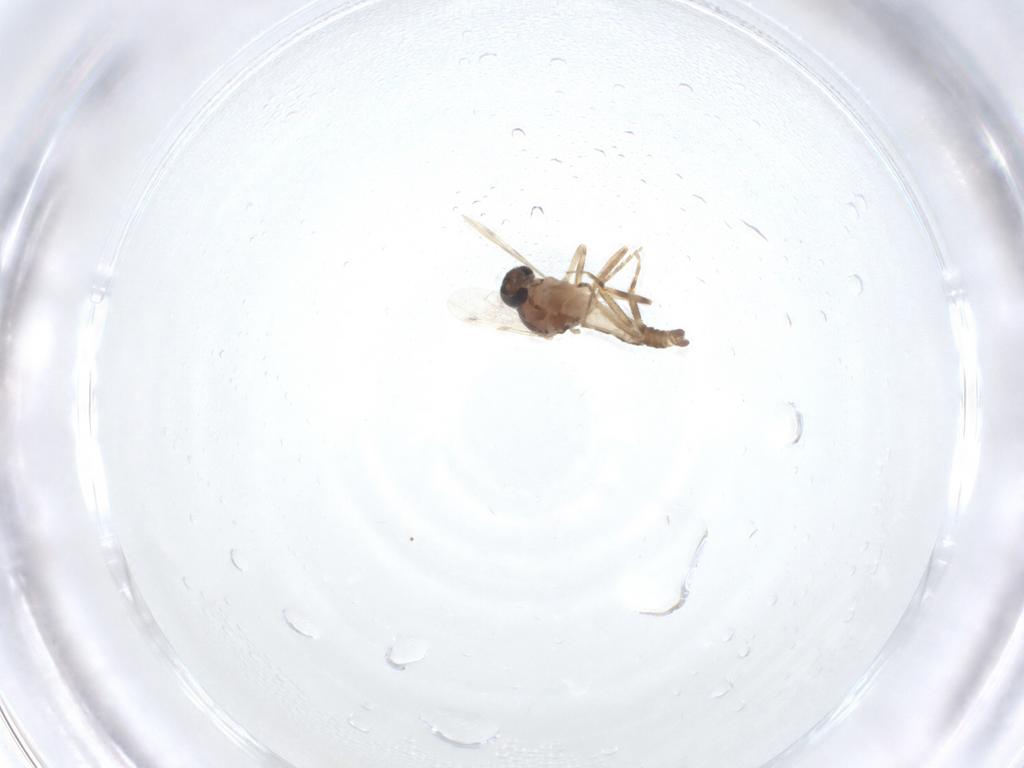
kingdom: Animalia
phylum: Arthropoda
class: Insecta
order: Diptera
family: Ceratopogonidae
